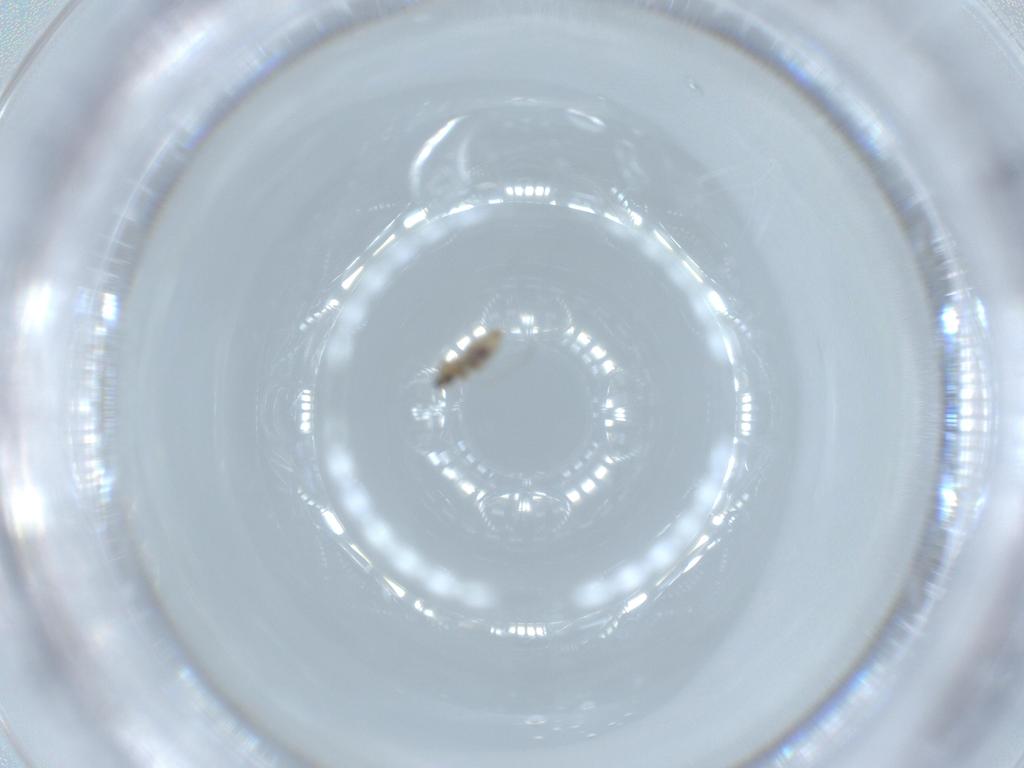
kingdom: Animalia
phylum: Arthropoda
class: Insecta
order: Diptera
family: Cecidomyiidae
